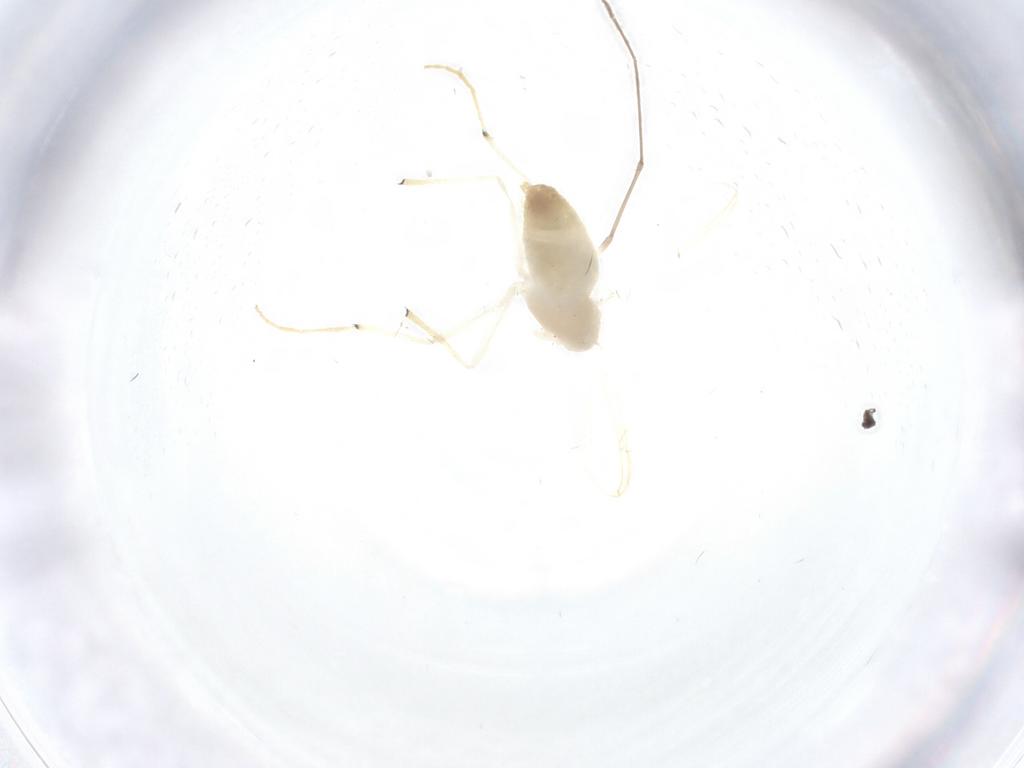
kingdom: Animalia
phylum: Arthropoda
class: Insecta
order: Diptera
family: Chironomidae
